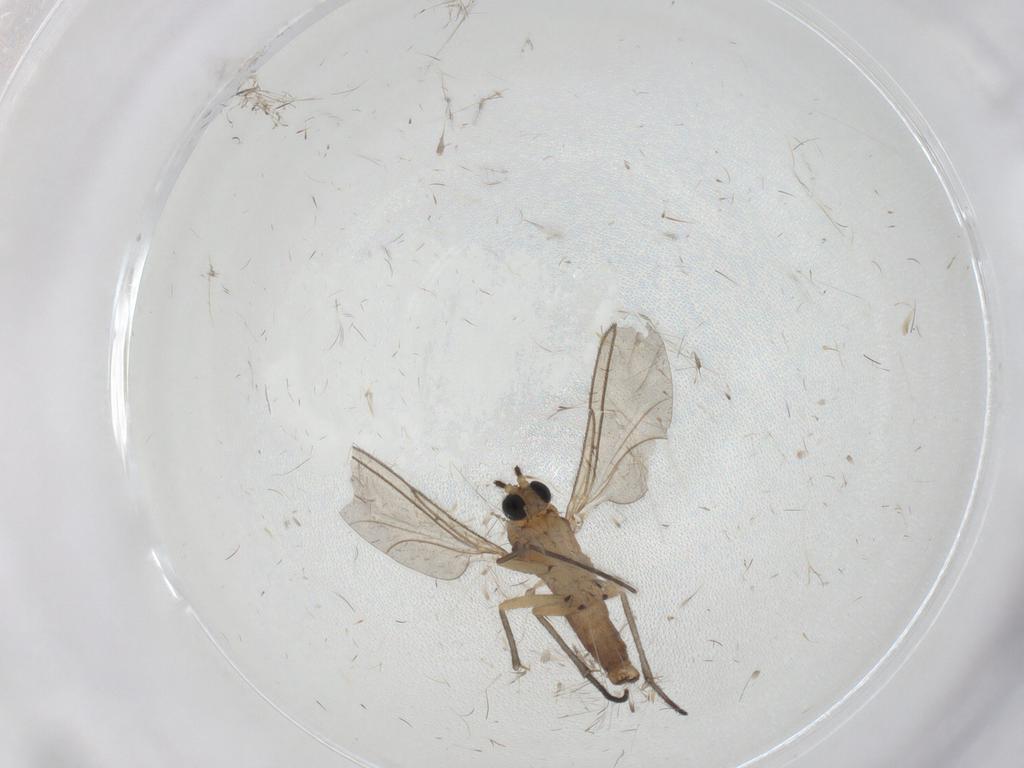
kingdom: Animalia
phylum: Arthropoda
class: Insecta
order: Diptera
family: Sciaridae
